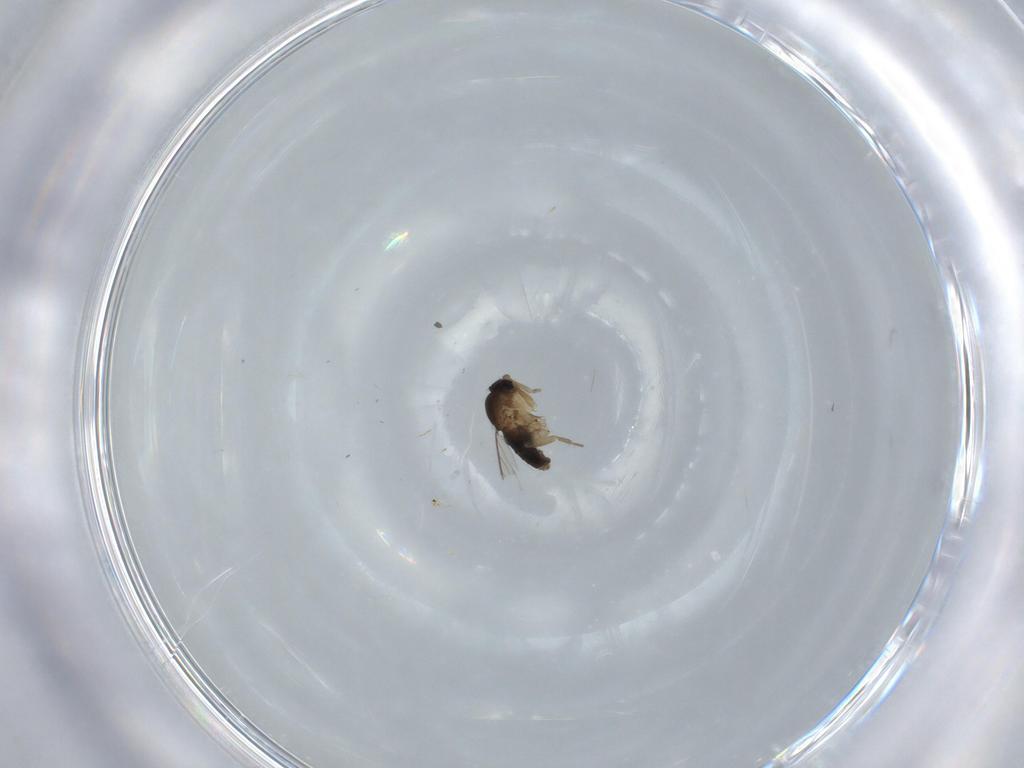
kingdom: Animalia
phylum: Arthropoda
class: Insecta
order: Diptera
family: Phoridae
